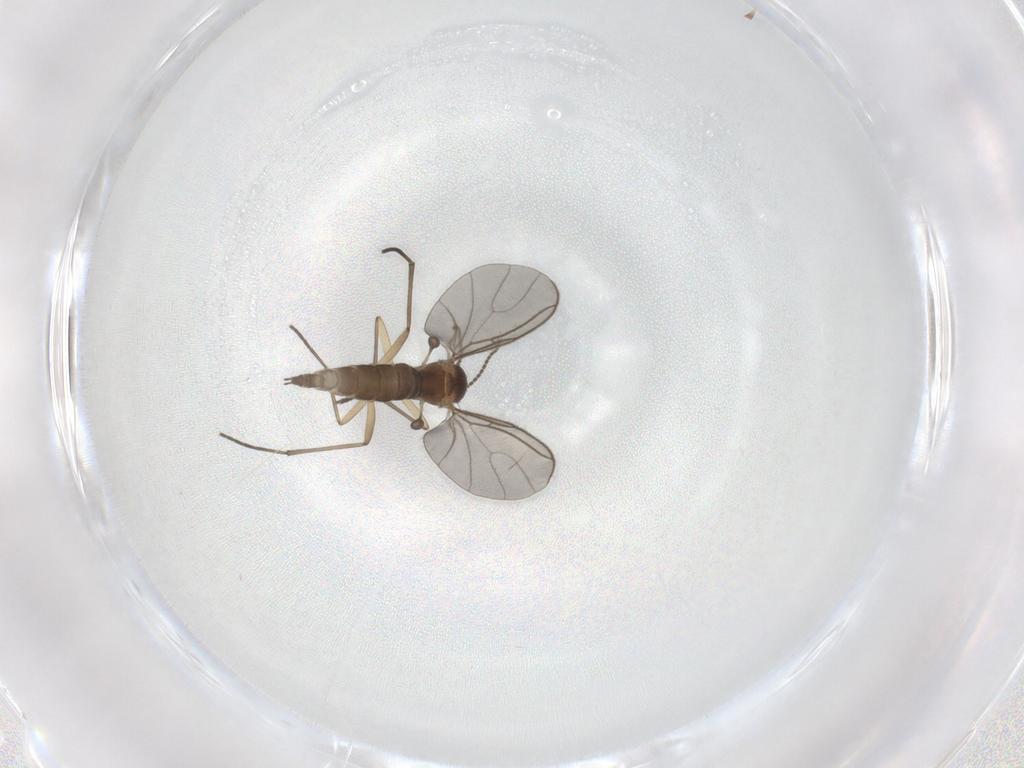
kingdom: Animalia
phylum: Arthropoda
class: Insecta
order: Diptera
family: Sciaridae
